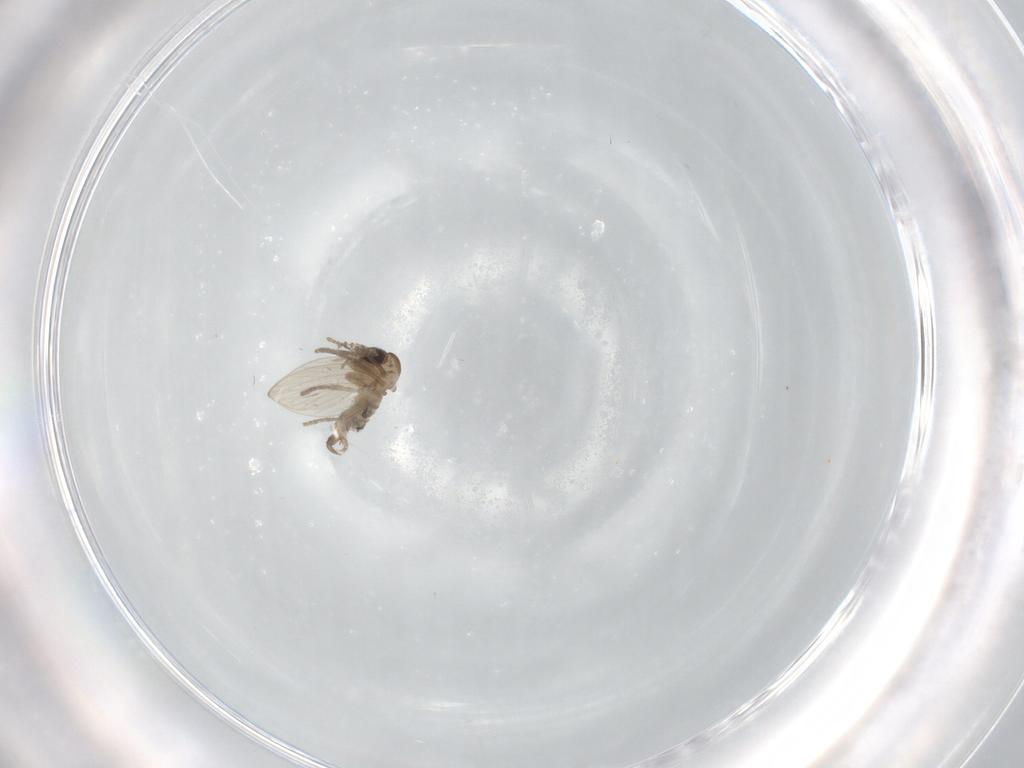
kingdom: Animalia
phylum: Arthropoda
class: Insecta
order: Diptera
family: Psychodidae
